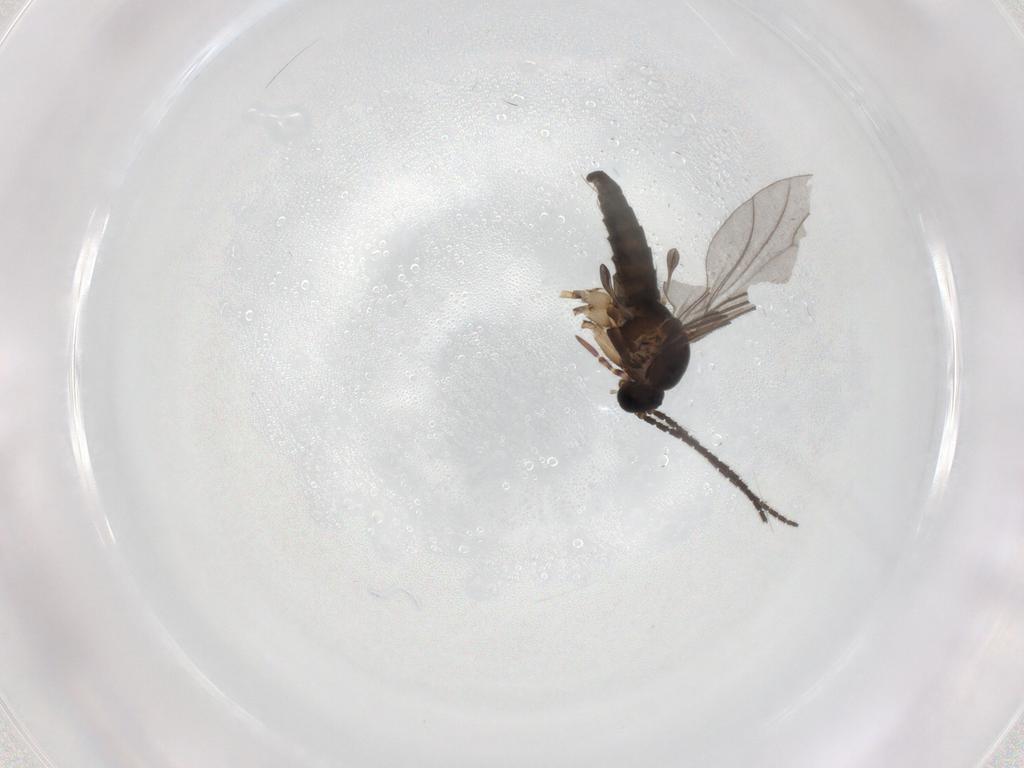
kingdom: Animalia
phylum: Arthropoda
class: Insecta
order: Diptera
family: Sciaridae
